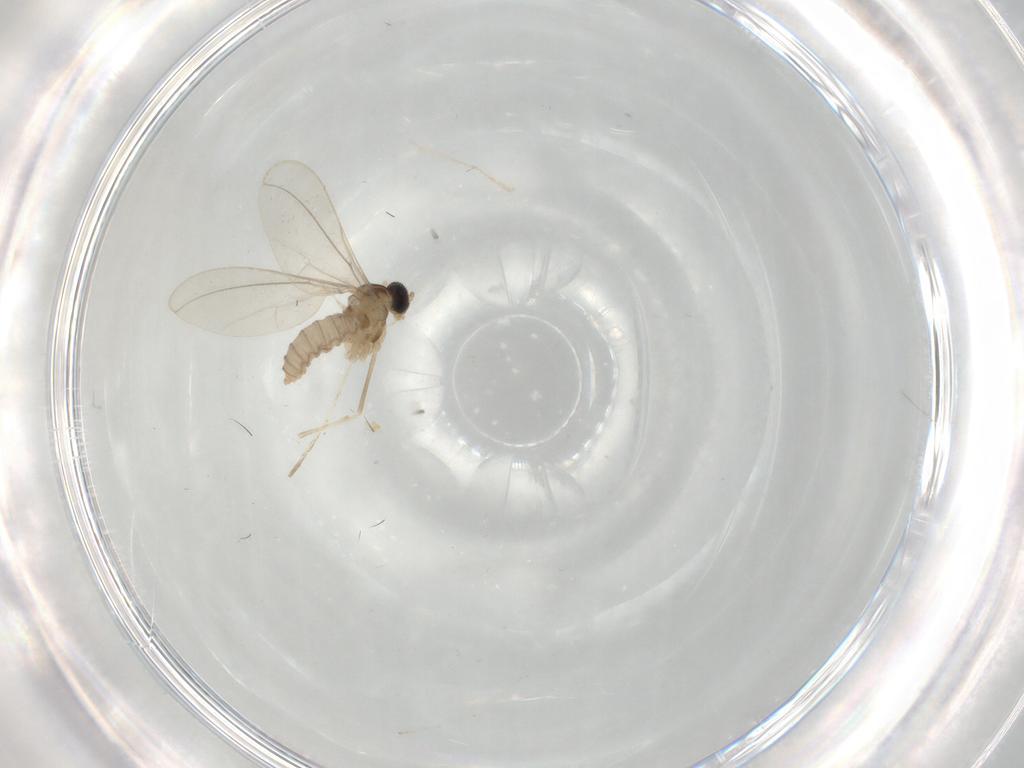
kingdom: Animalia
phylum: Arthropoda
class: Insecta
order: Diptera
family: Cecidomyiidae
